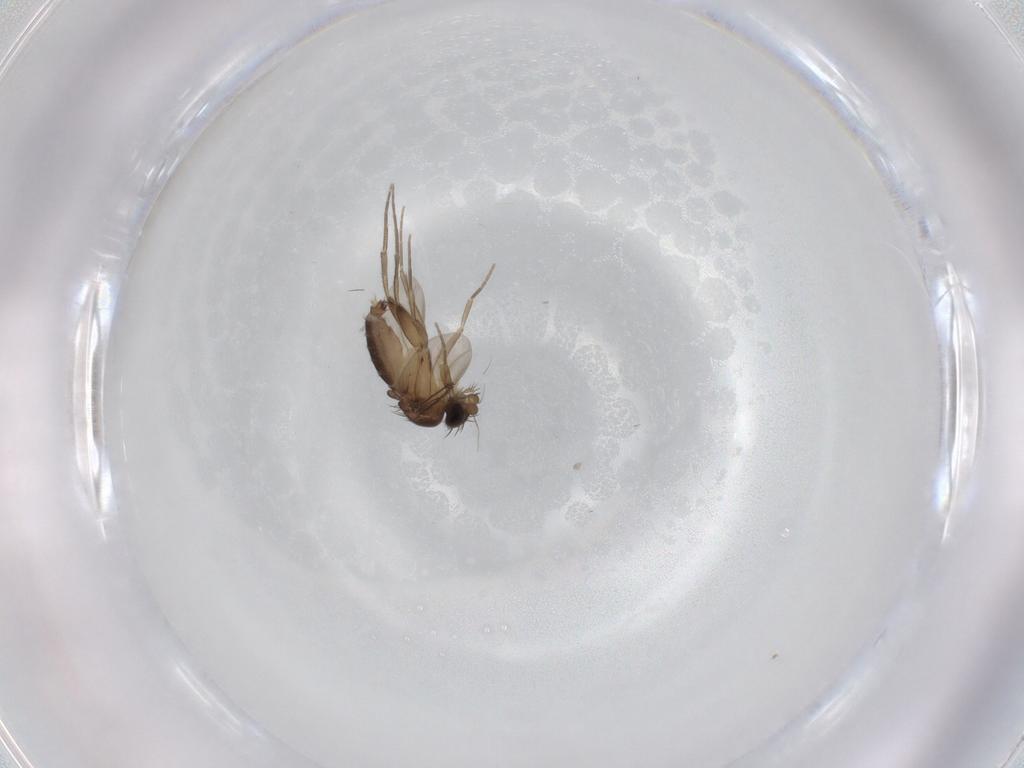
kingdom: Animalia
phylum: Arthropoda
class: Insecta
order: Diptera
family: Phoridae
